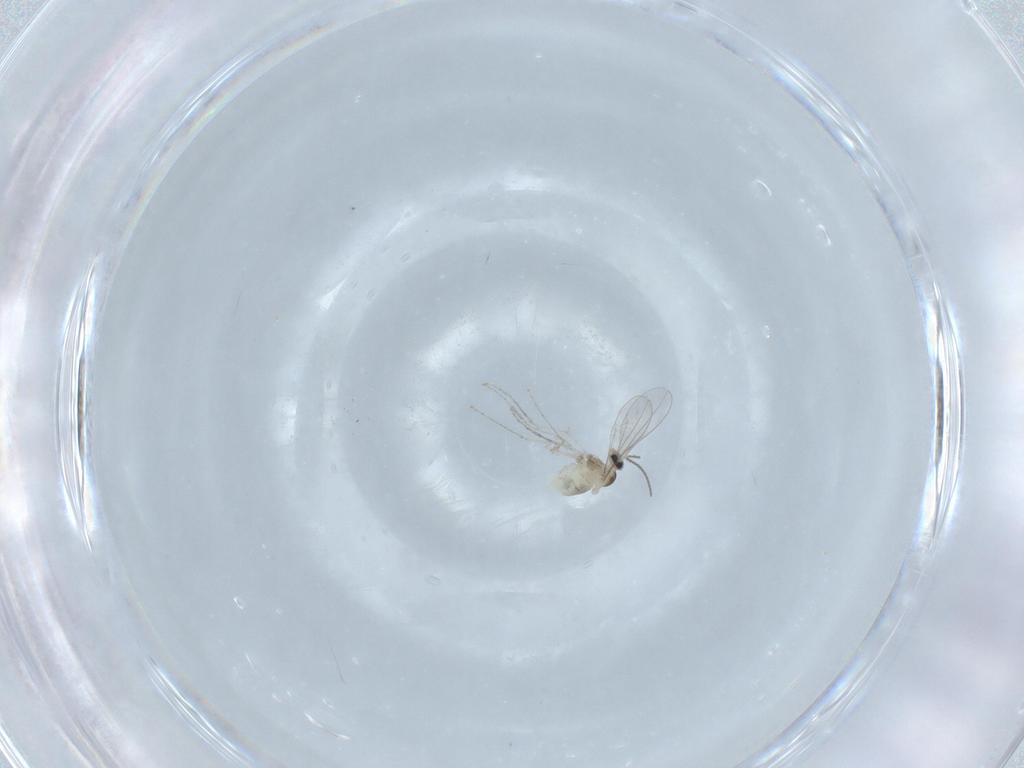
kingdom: Animalia
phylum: Arthropoda
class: Insecta
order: Diptera
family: Cecidomyiidae
